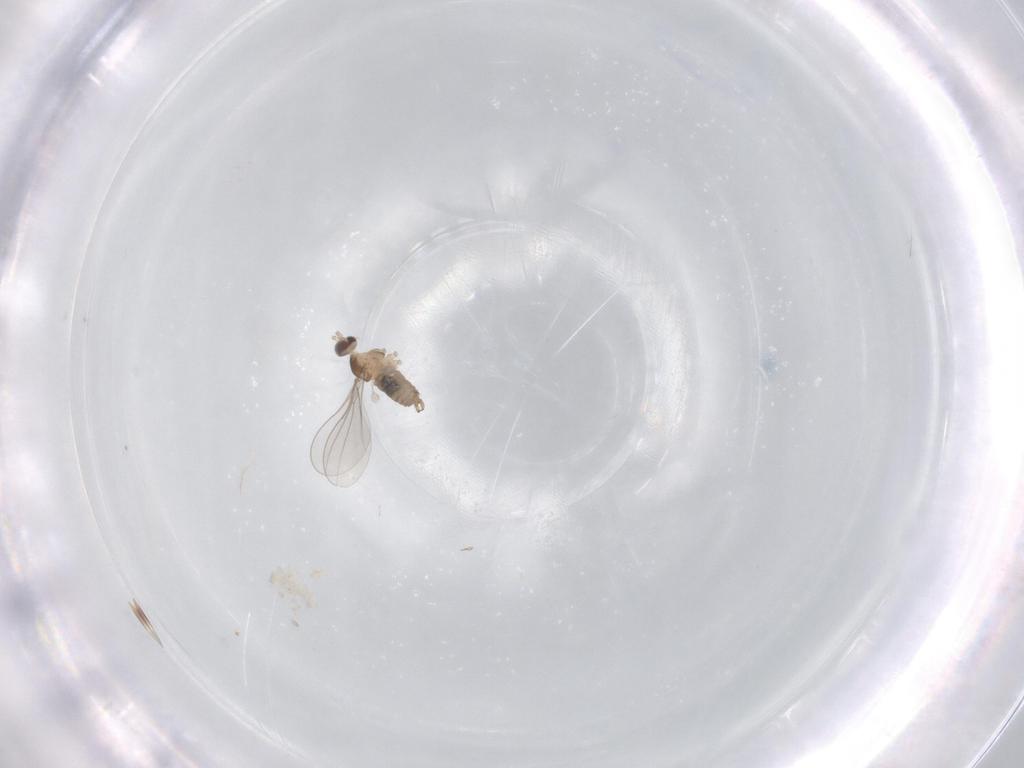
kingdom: Animalia
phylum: Arthropoda
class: Insecta
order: Diptera
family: Cecidomyiidae
